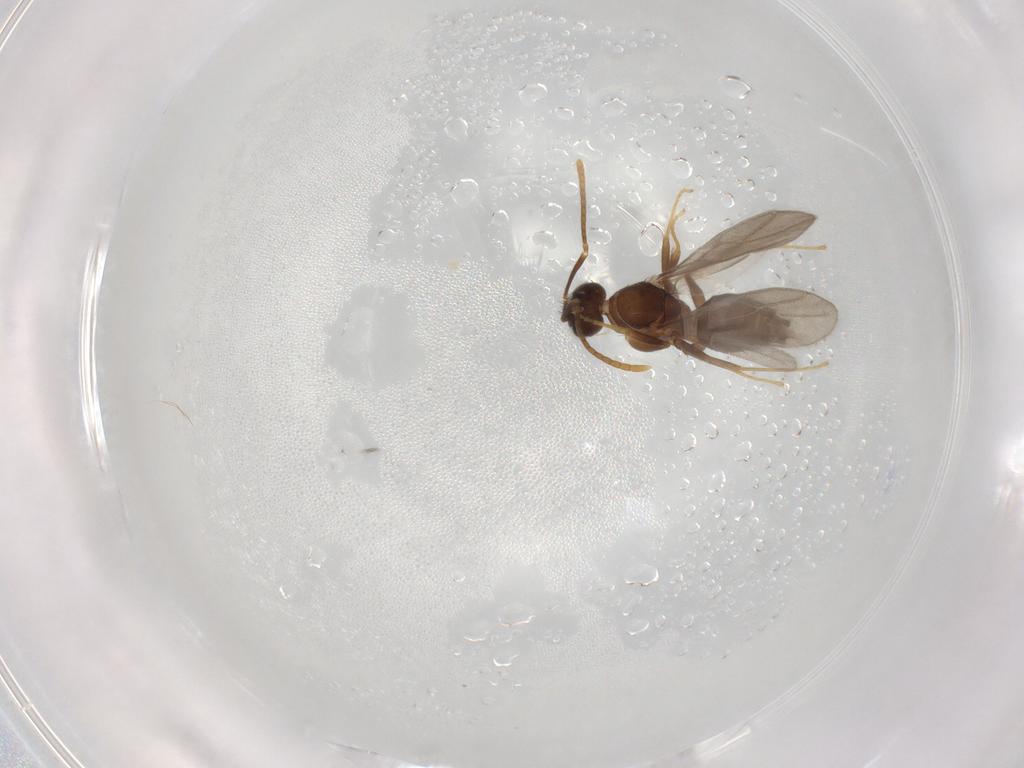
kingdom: Animalia
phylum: Arthropoda
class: Insecta
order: Hymenoptera
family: Formicidae
